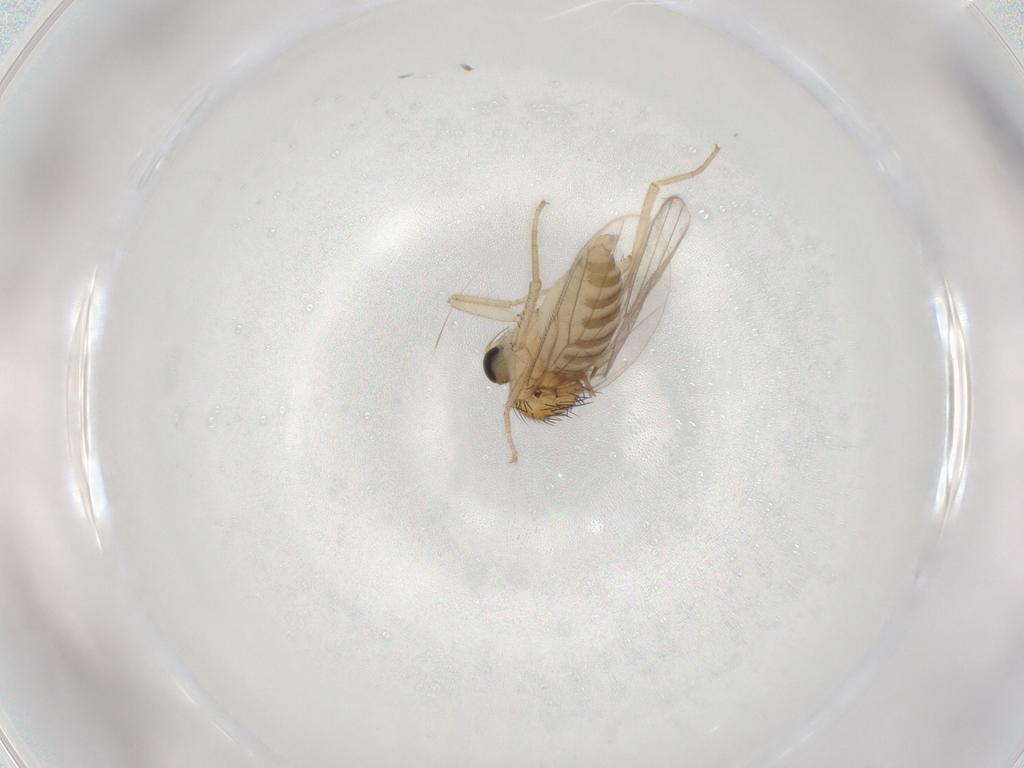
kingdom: Animalia
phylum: Arthropoda
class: Insecta
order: Diptera
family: Hybotidae
